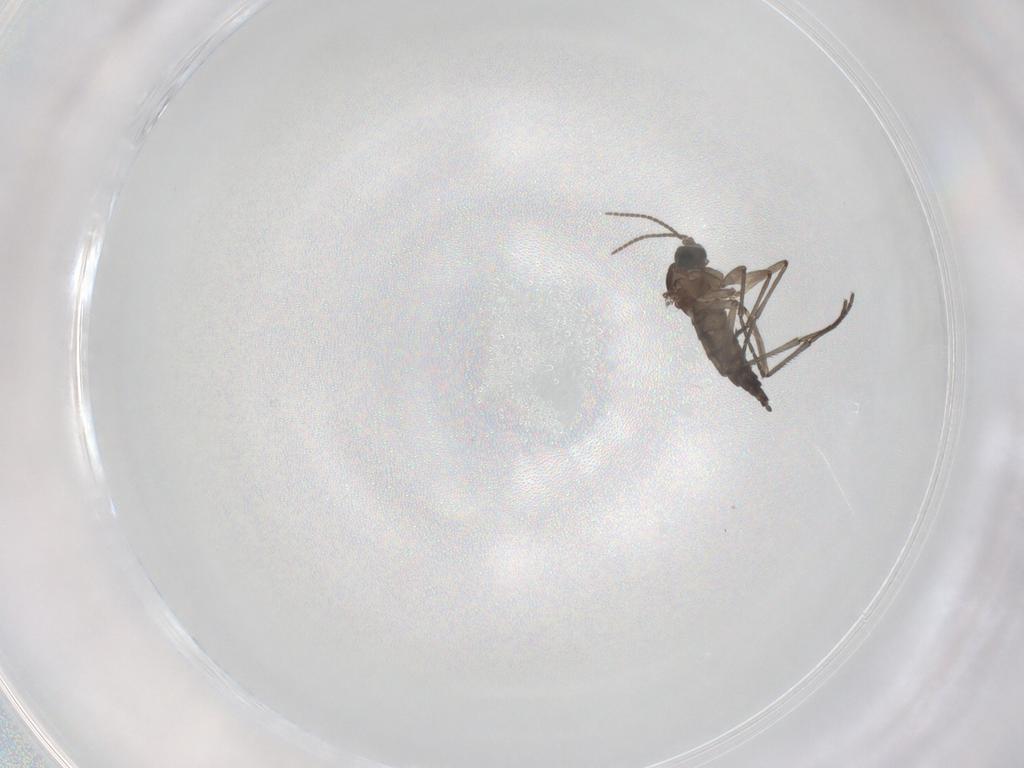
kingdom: Animalia
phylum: Arthropoda
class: Insecta
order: Diptera
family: Sciaridae
